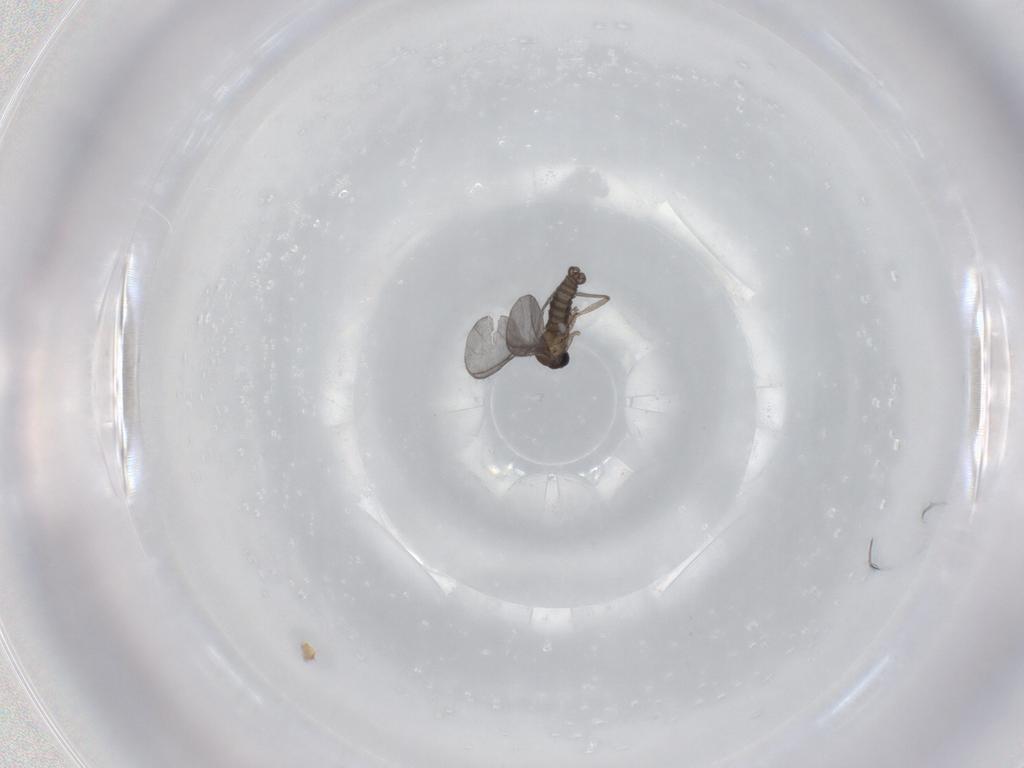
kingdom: Animalia
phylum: Arthropoda
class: Insecta
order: Diptera
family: Sciaridae
